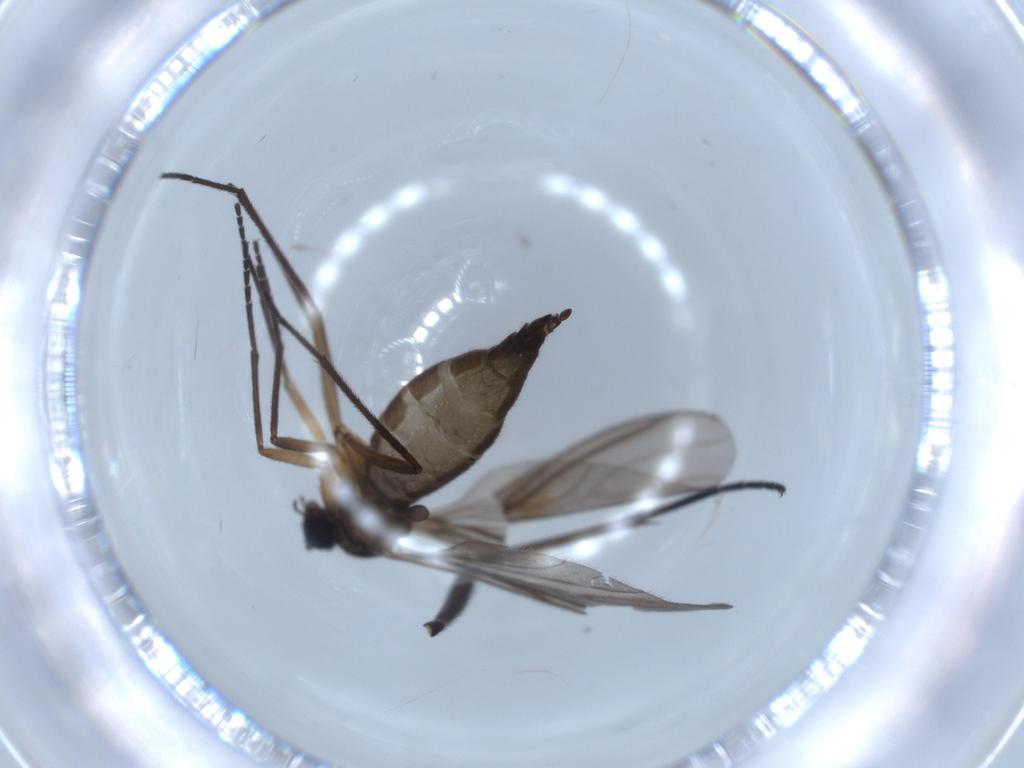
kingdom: Animalia
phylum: Arthropoda
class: Insecta
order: Diptera
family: Sciaridae
